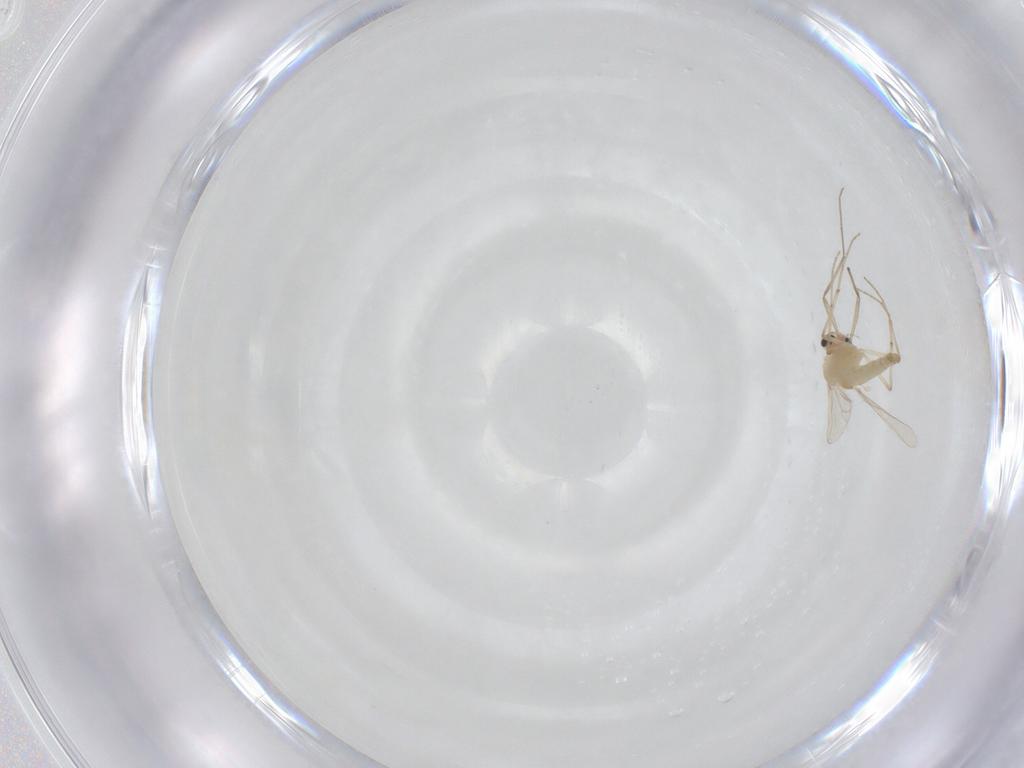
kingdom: Animalia
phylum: Arthropoda
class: Insecta
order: Diptera
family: Chironomidae
